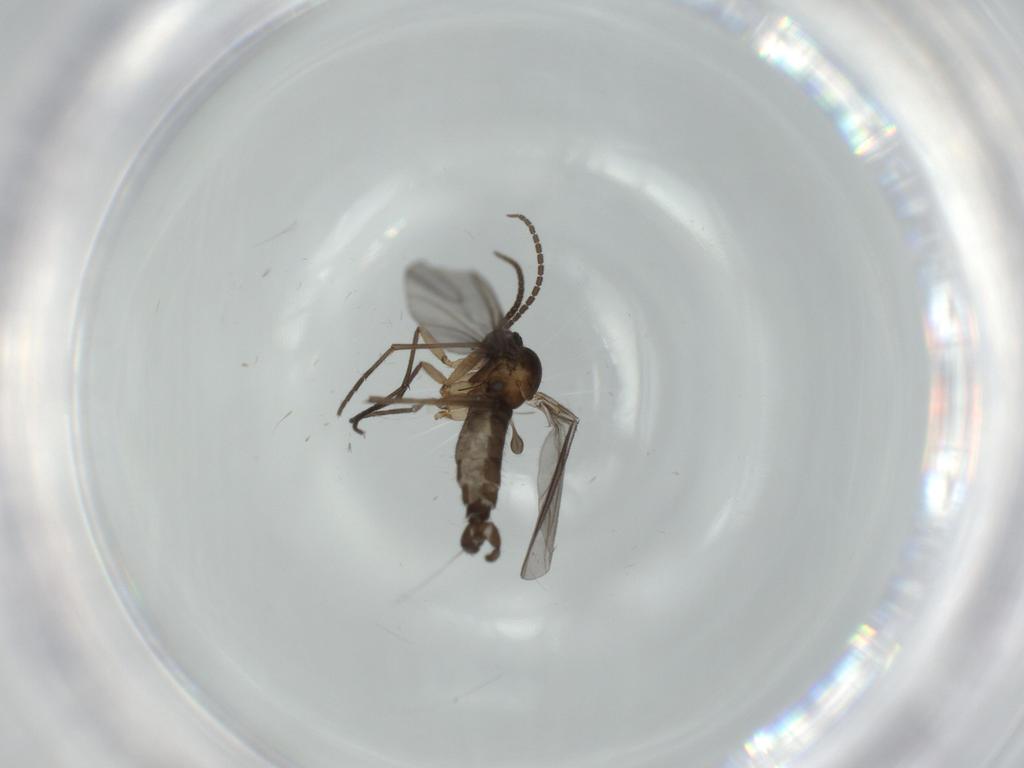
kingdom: Animalia
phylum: Arthropoda
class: Insecta
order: Diptera
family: Sciaridae
